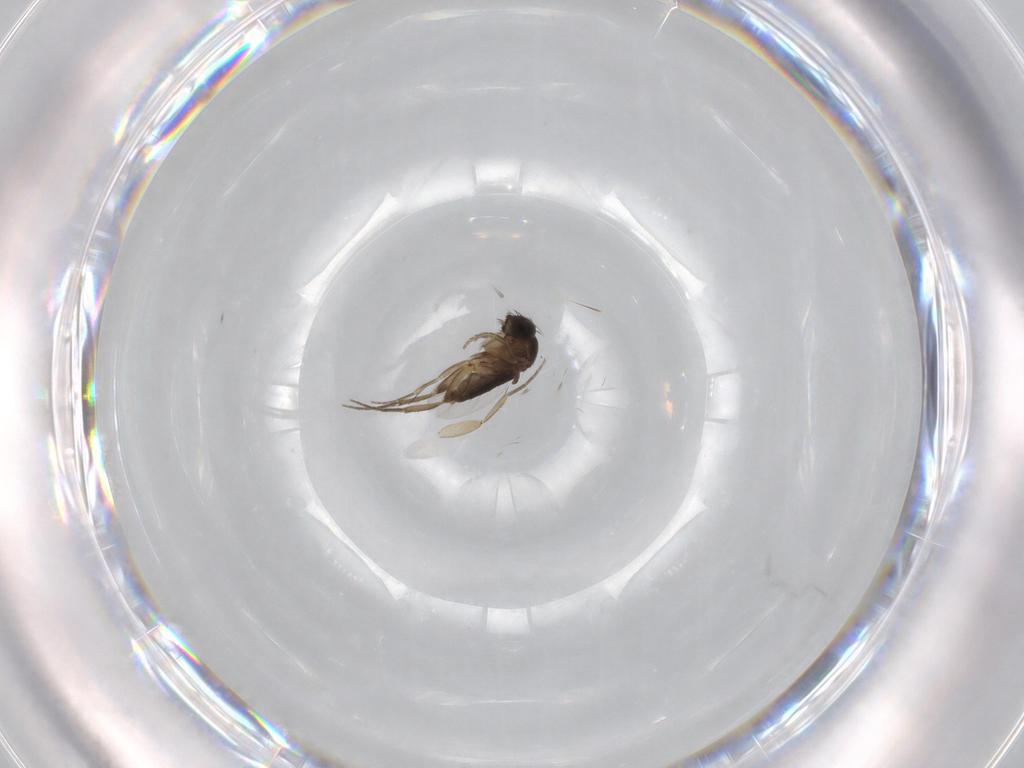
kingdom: Animalia
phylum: Arthropoda
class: Insecta
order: Diptera
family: Phoridae
